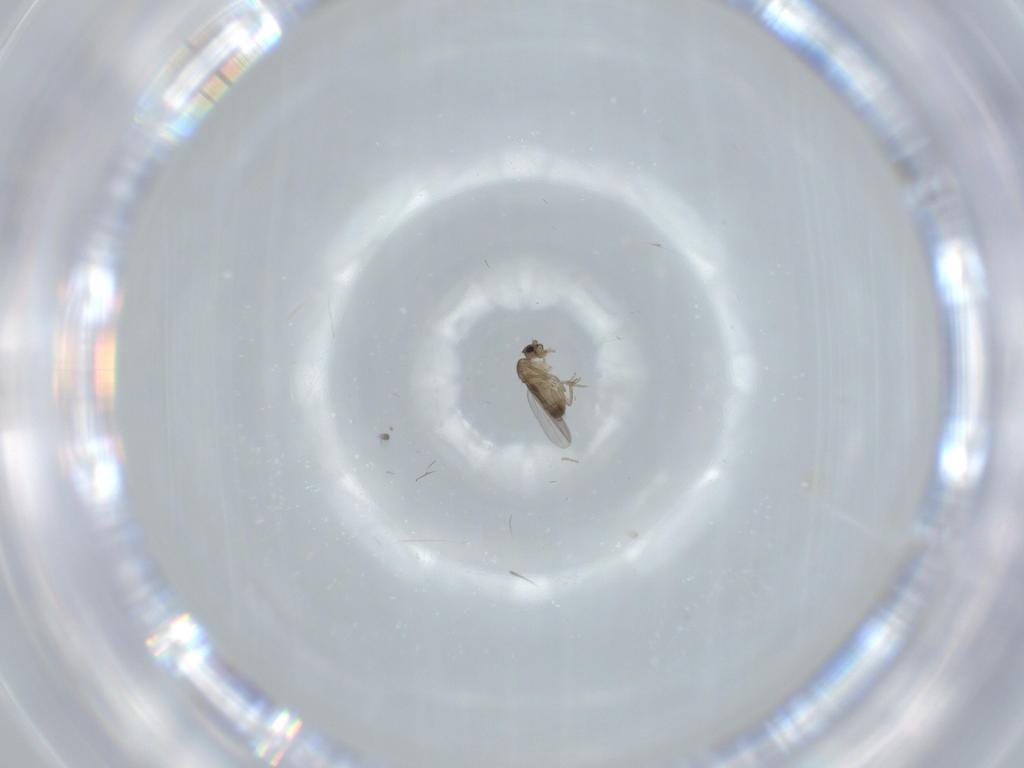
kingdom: Animalia
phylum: Arthropoda
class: Insecta
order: Diptera
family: Phoridae
